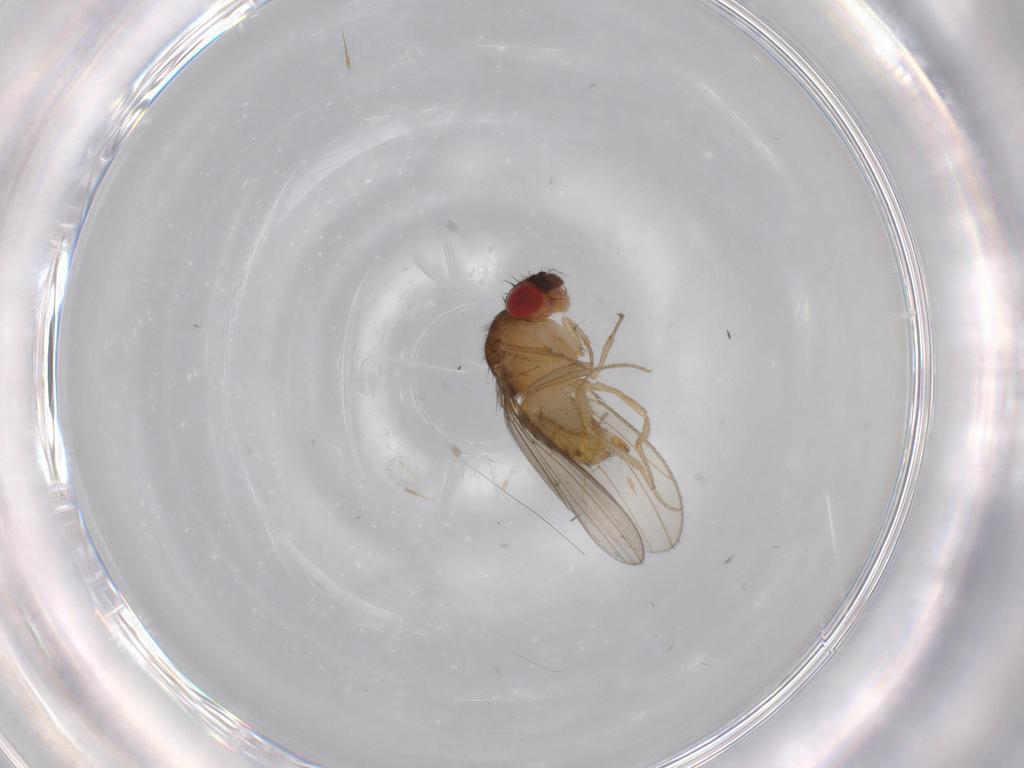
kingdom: Animalia
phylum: Arthropoda
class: Insecta
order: Diptera
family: Drosophilidae
